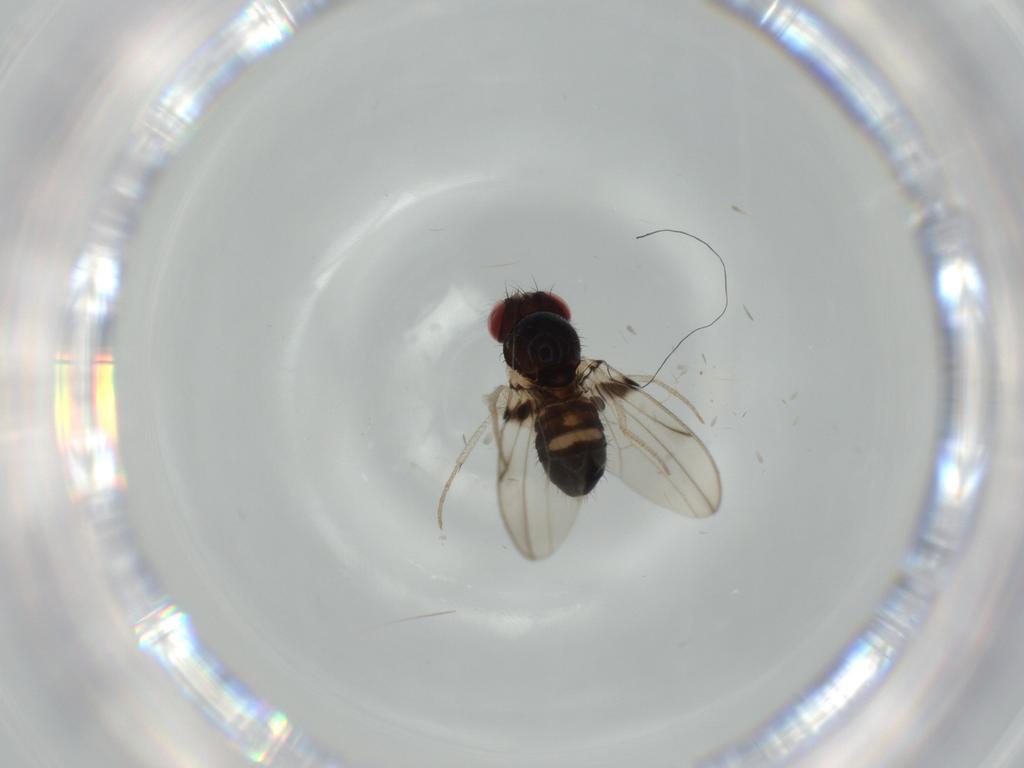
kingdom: Animalia
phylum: Arthropoda
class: Insecta
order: Diptera
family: Drosophilidae
